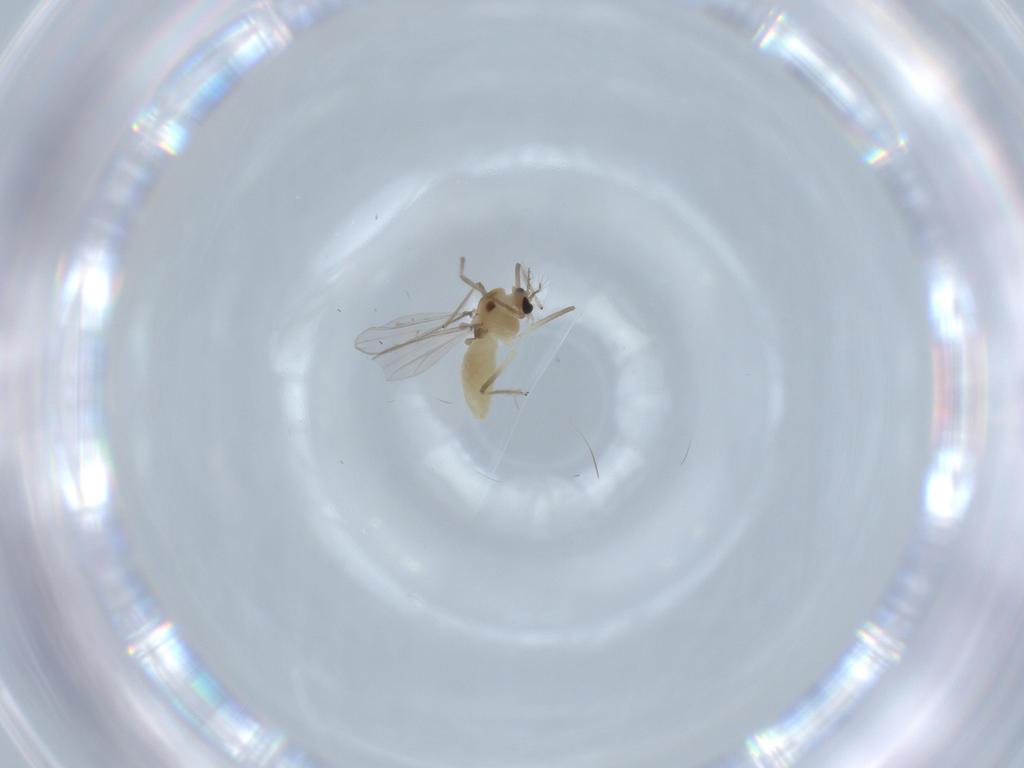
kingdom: Animalia
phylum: Arthropoda
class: Insecta
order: Diptera
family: Chironomidae
